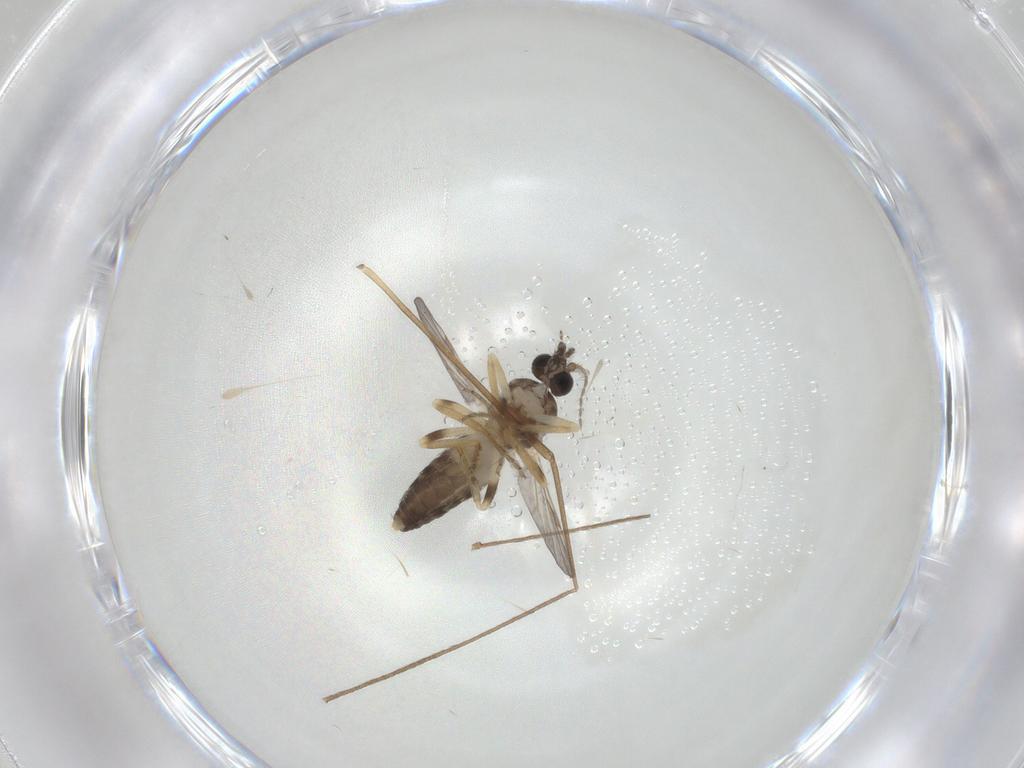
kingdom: Animalia
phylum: Arthropoda
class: Insecta
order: Diptera
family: Ceratopogonidae
